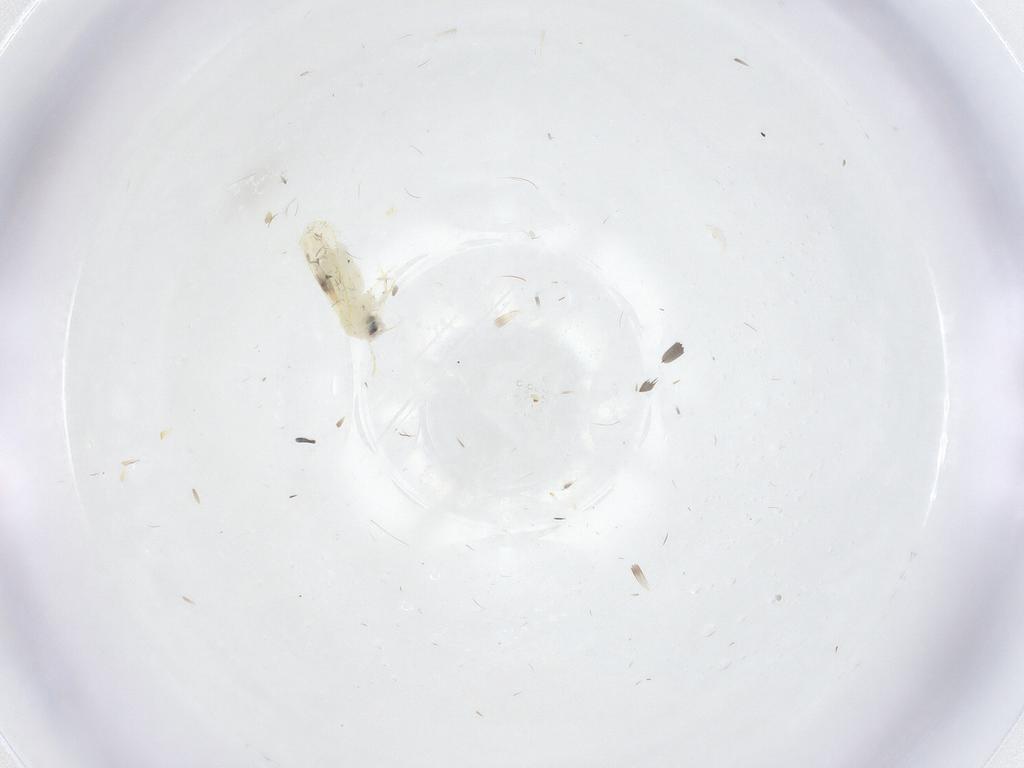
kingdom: Animalia
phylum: Arthropoda
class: Insecta
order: Hemiptera
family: Aleyrodidae
